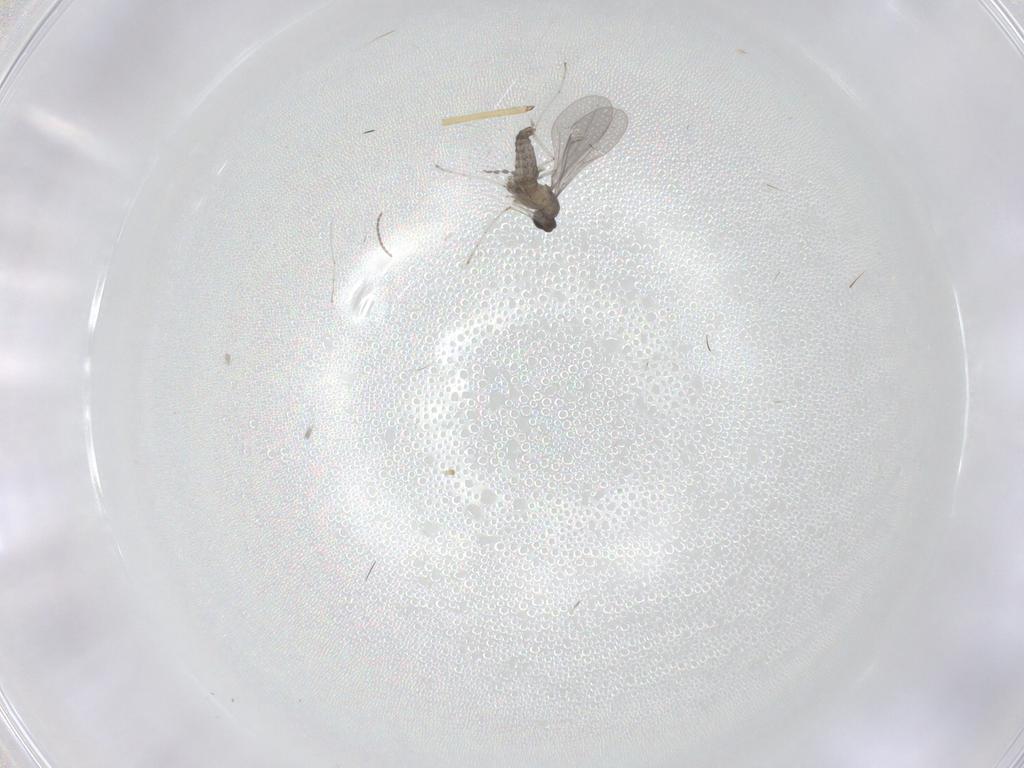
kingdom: Animalia
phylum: Arthropoda
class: Insecta
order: Diptera
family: Cecidomyiidae
